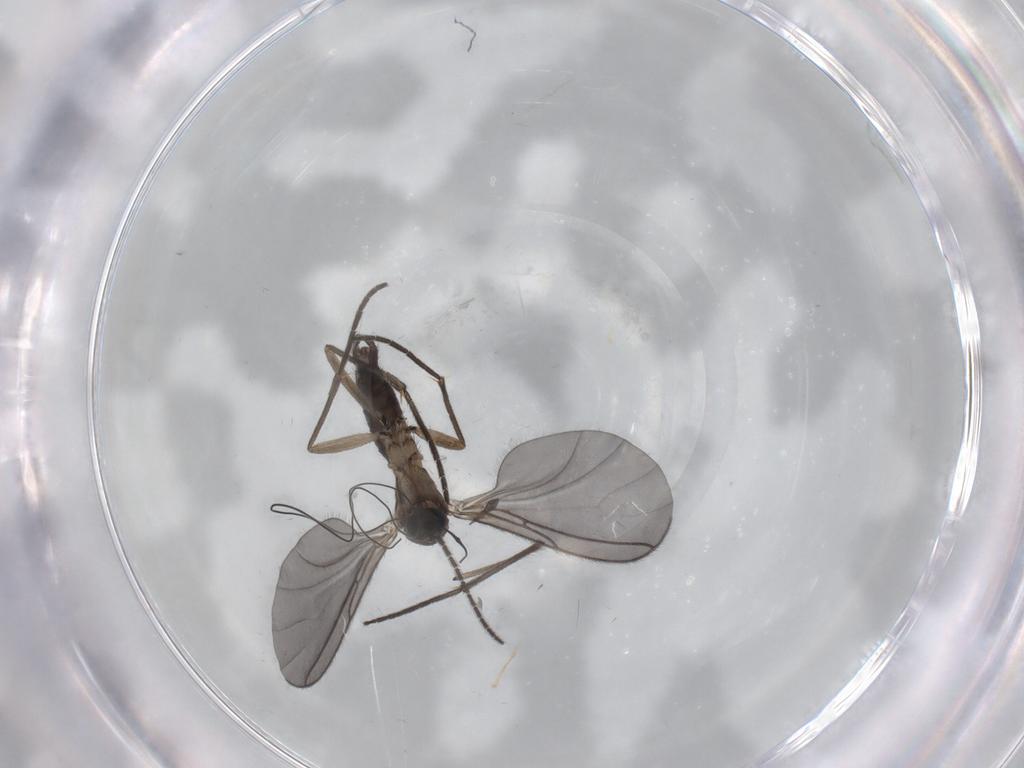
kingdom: Animalia
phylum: Arthropoda
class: Insecta
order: Diptera
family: Sciaridae
